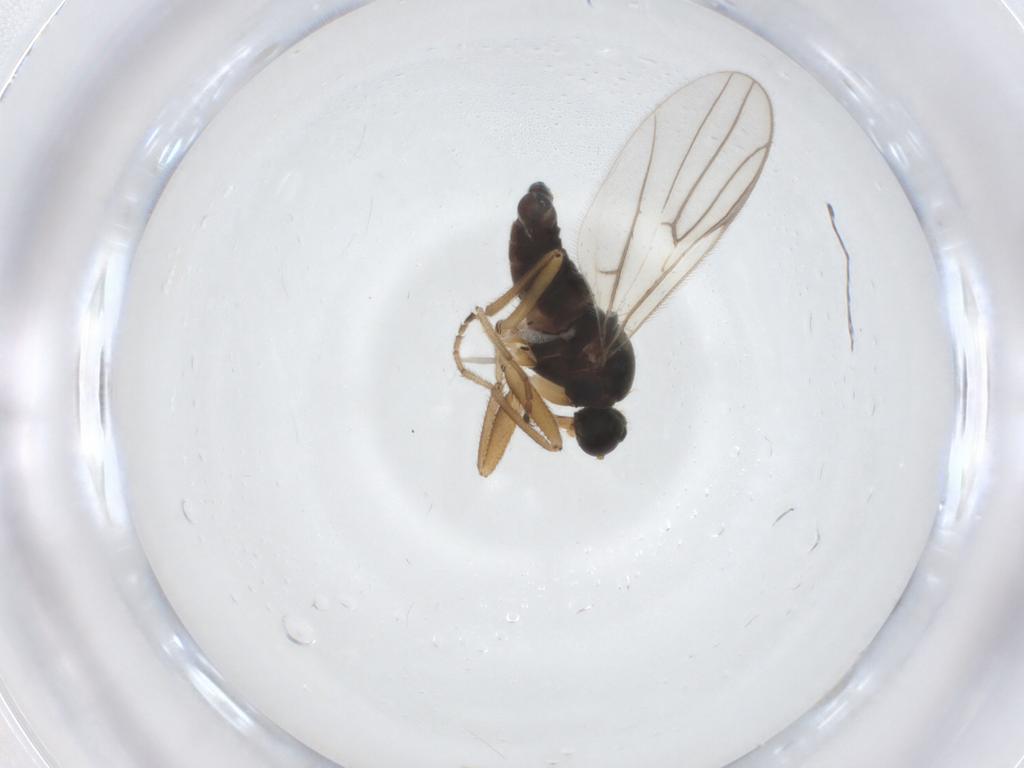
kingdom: Animalia
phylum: Arthropoda
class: Insecta
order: Diptera
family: Hybotidae
